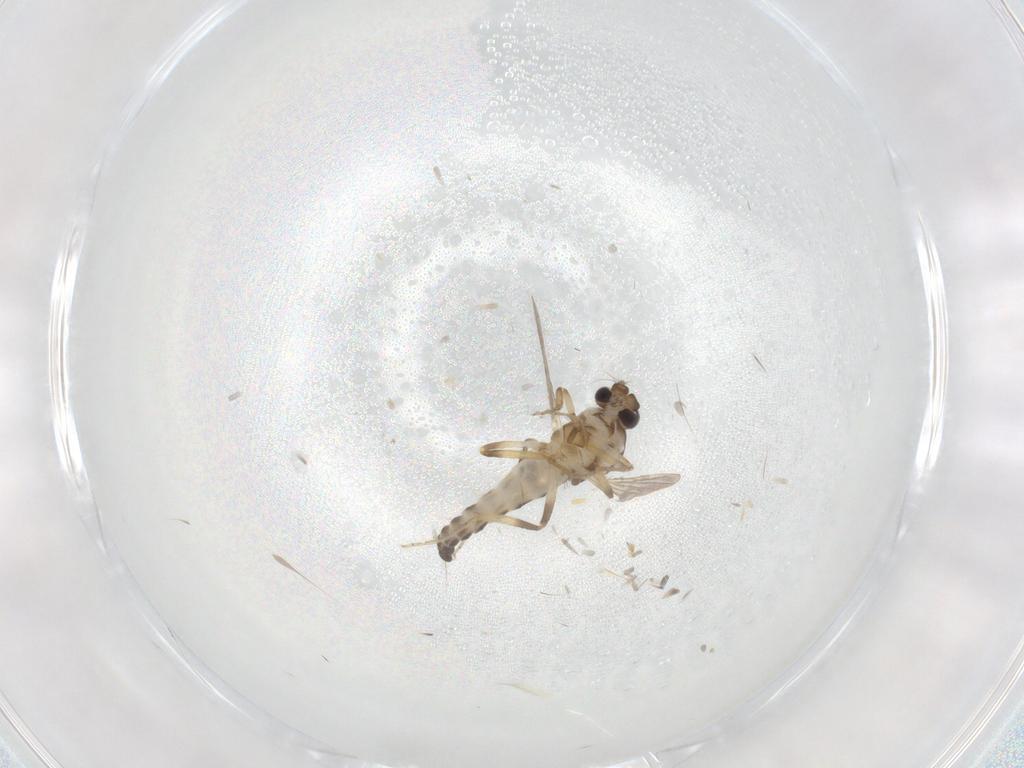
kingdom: Animalia
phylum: Arthropoda
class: Insecta
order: Diptera
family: Ceratopogonidae
